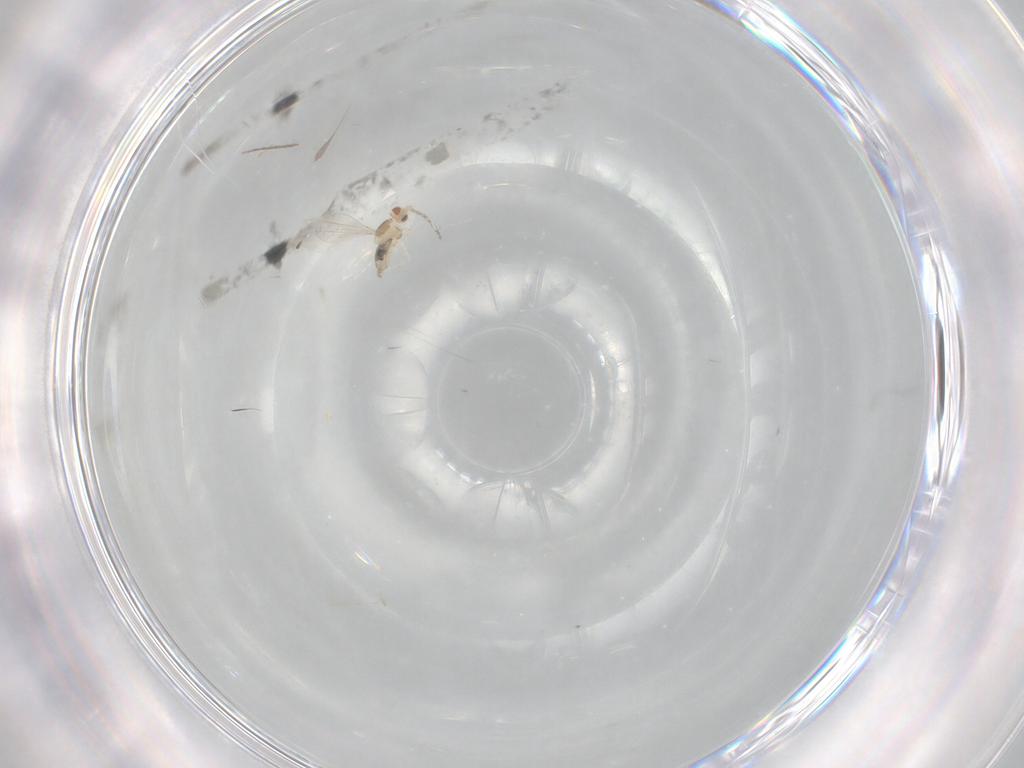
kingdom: Animalia
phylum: Arthropoda
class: Insecta
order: Diptera
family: Cecidomyiidae
